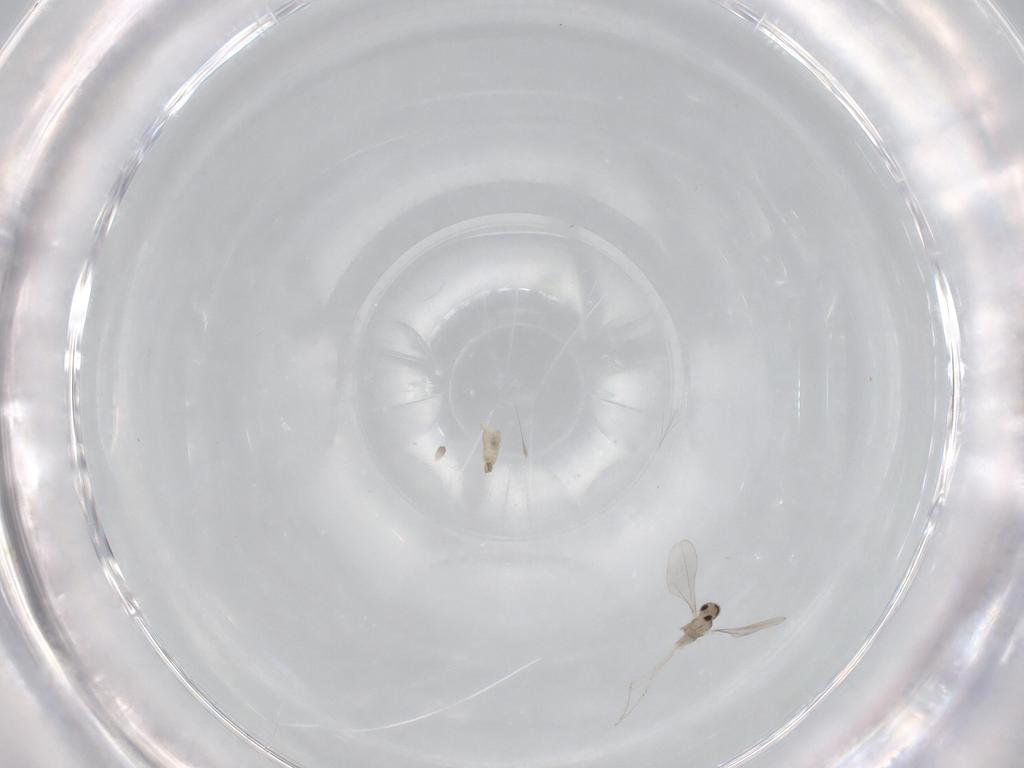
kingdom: Animalia
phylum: Arthropoda
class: Insecta
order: Diptera
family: Cecidomyiidae
